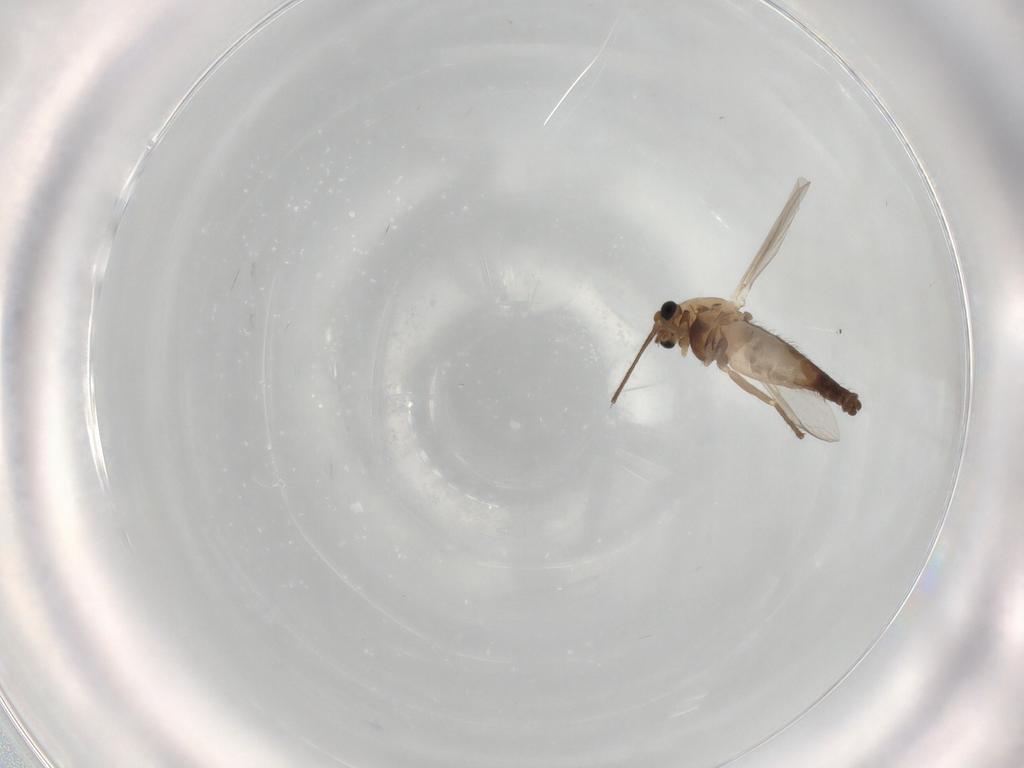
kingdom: Animalia
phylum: Arthropoda
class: Insecta
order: Diptera
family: Chironomidae
